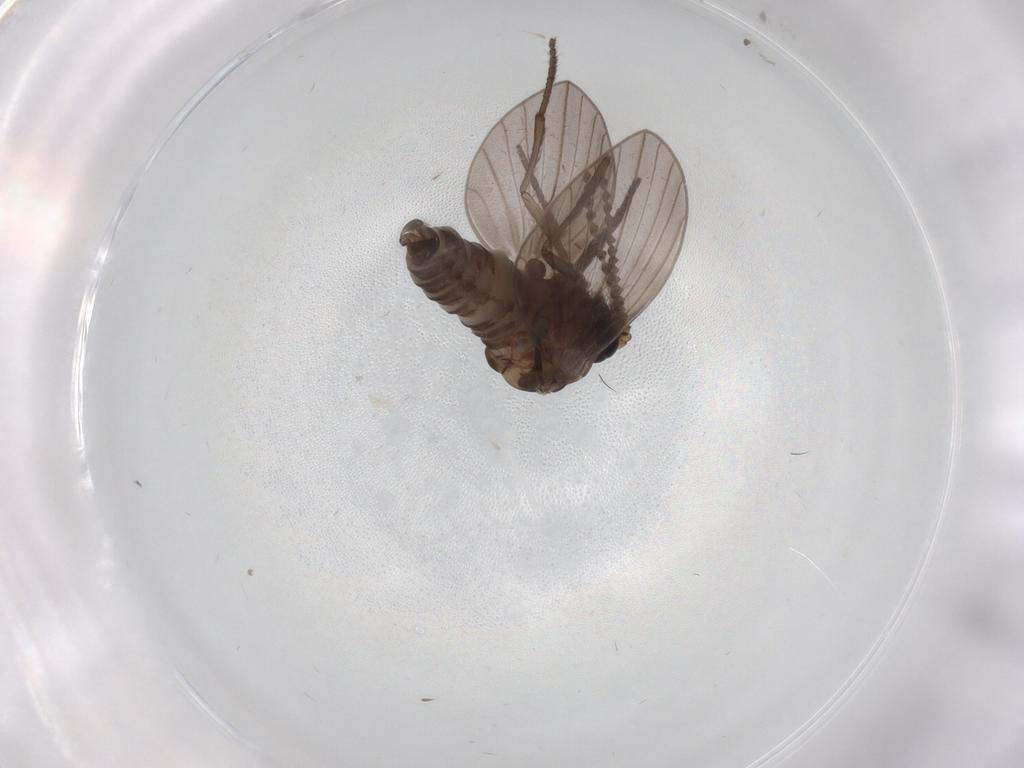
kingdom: Animalia
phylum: Arthropoda
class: Insecta
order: Diptera
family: Psychodidae
